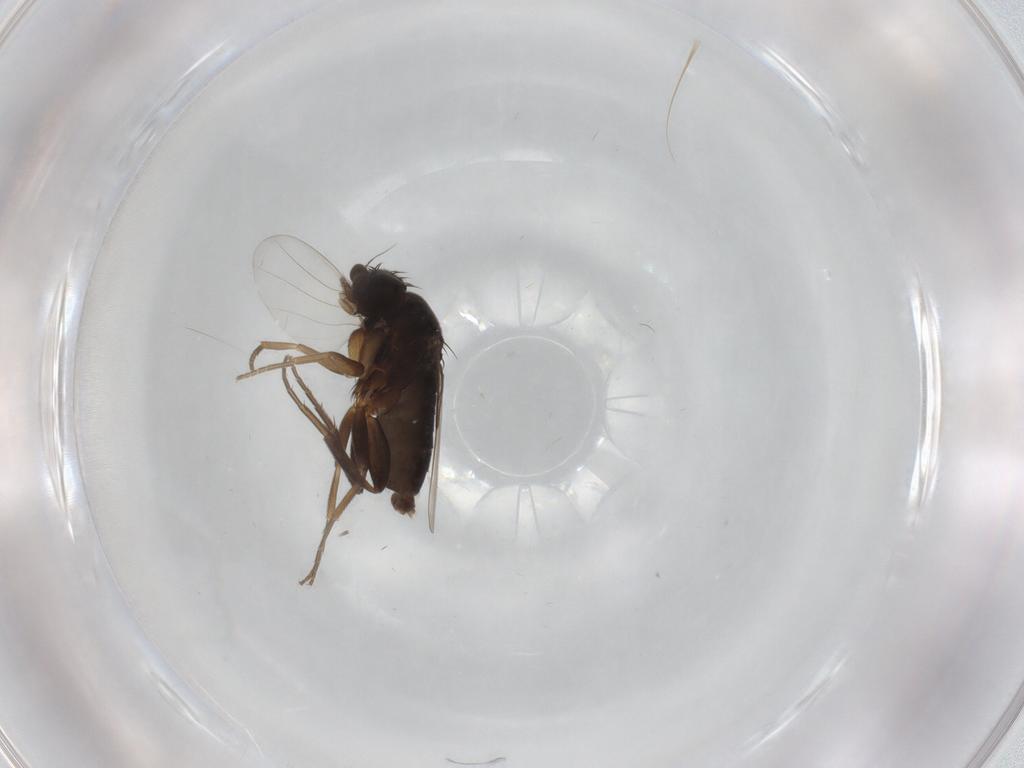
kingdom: Animalia
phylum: Arthropoda
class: Insecta
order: Diptera
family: Phoridae
